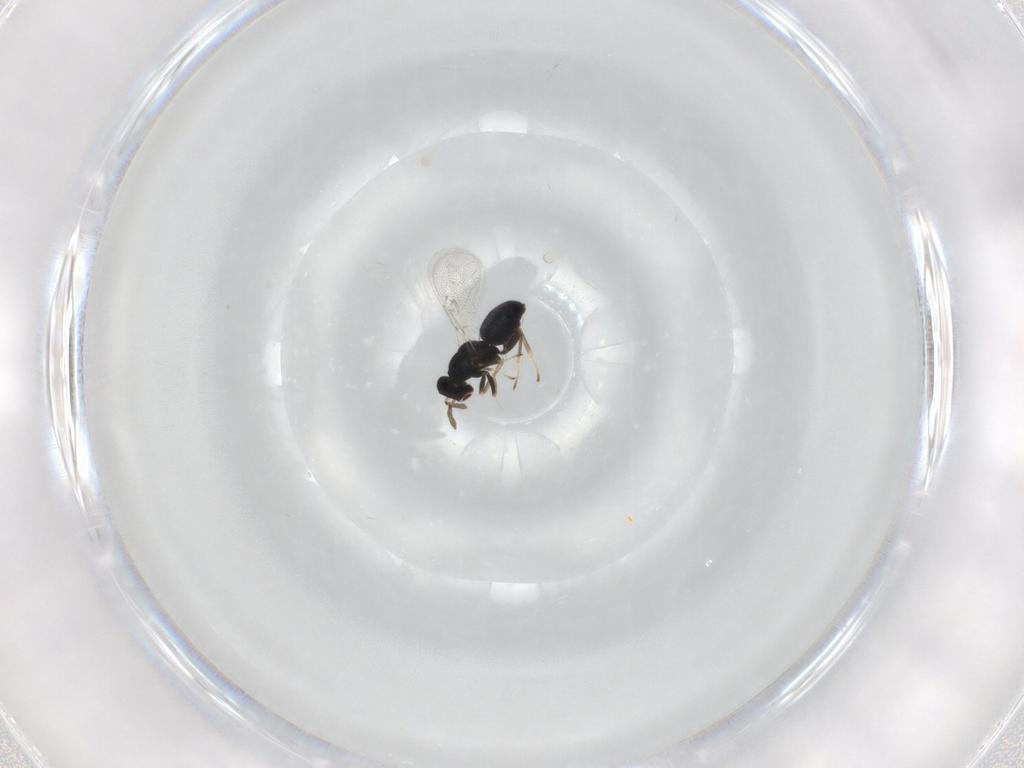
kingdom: Animalia
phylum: Arthropoda
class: Insecta
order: Hymenoptera
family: Eulophidae
